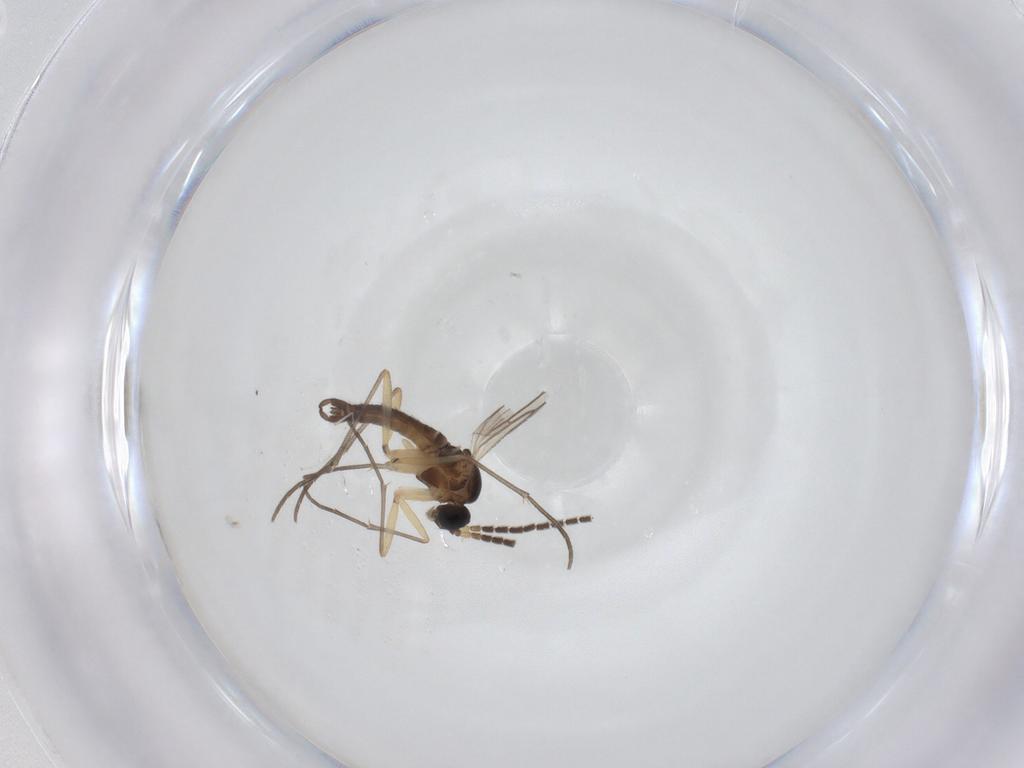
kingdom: Animalia
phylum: Arthropoda
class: Insecta
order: Diptera
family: Sciaridae
